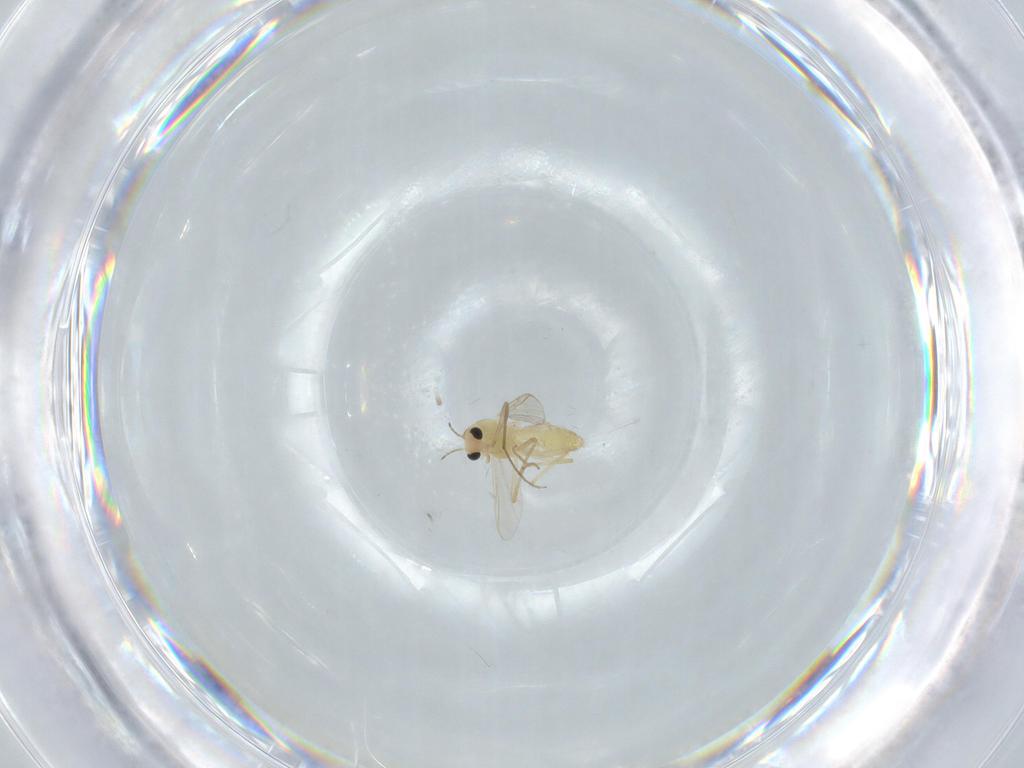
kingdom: Animalia
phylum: Arthropoda
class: Insecta
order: Diptera
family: Chironomidae
